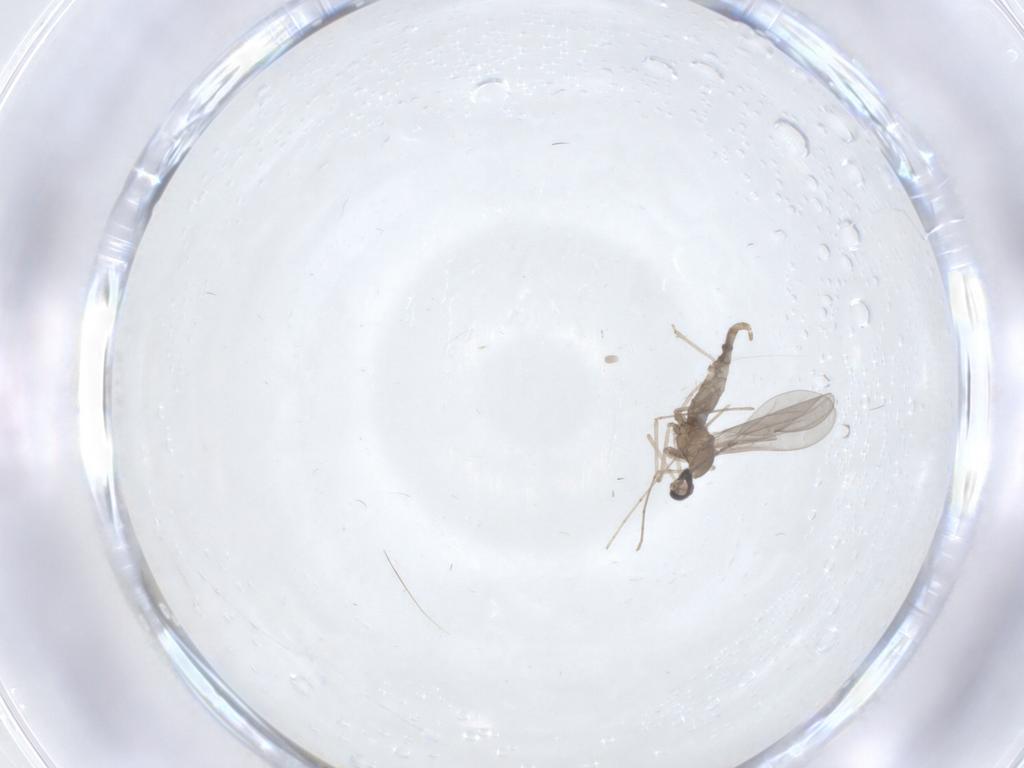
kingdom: Animalia
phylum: Arthropoda
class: Insecta
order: Diptera
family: Cecidomyiidae
